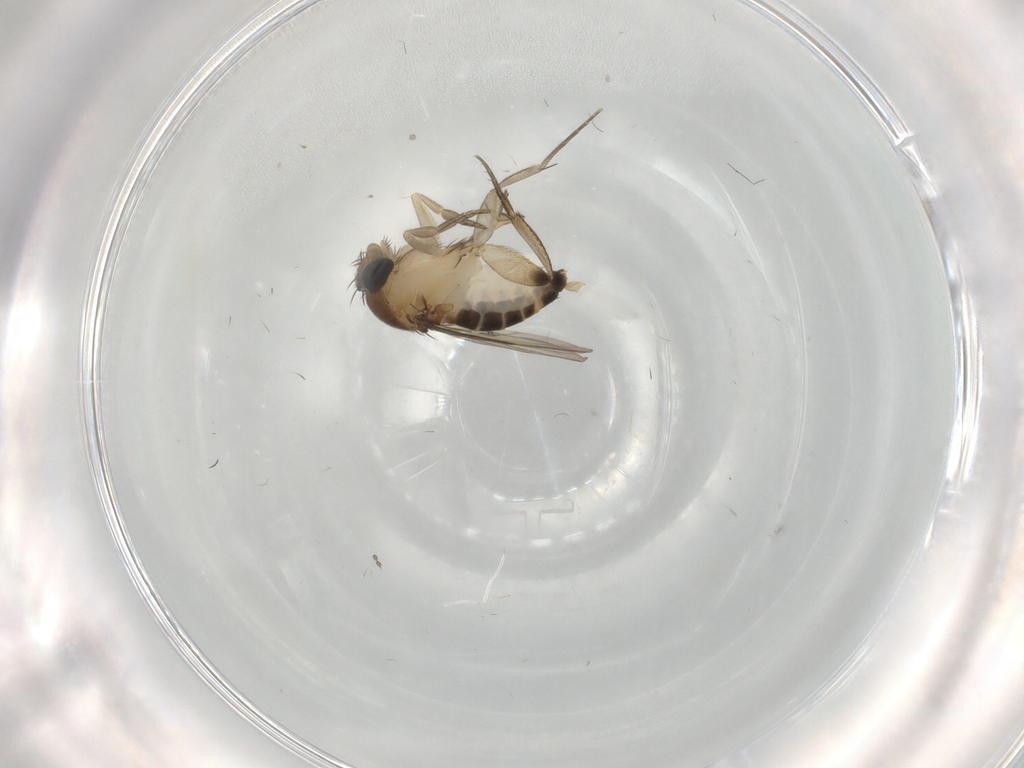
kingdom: Animalia
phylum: Arthropoda
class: Insecta
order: Diptera
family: Phoridae
